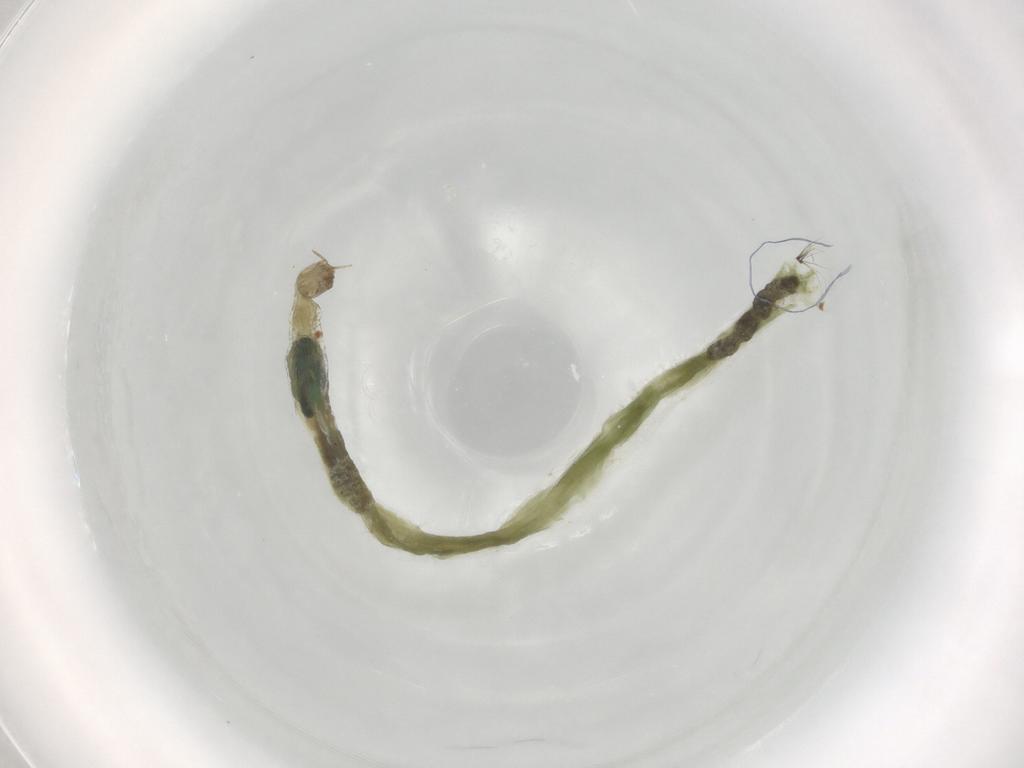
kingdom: Animalia
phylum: Arthropoda
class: Insecta
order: Diptera
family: Chironomidae
